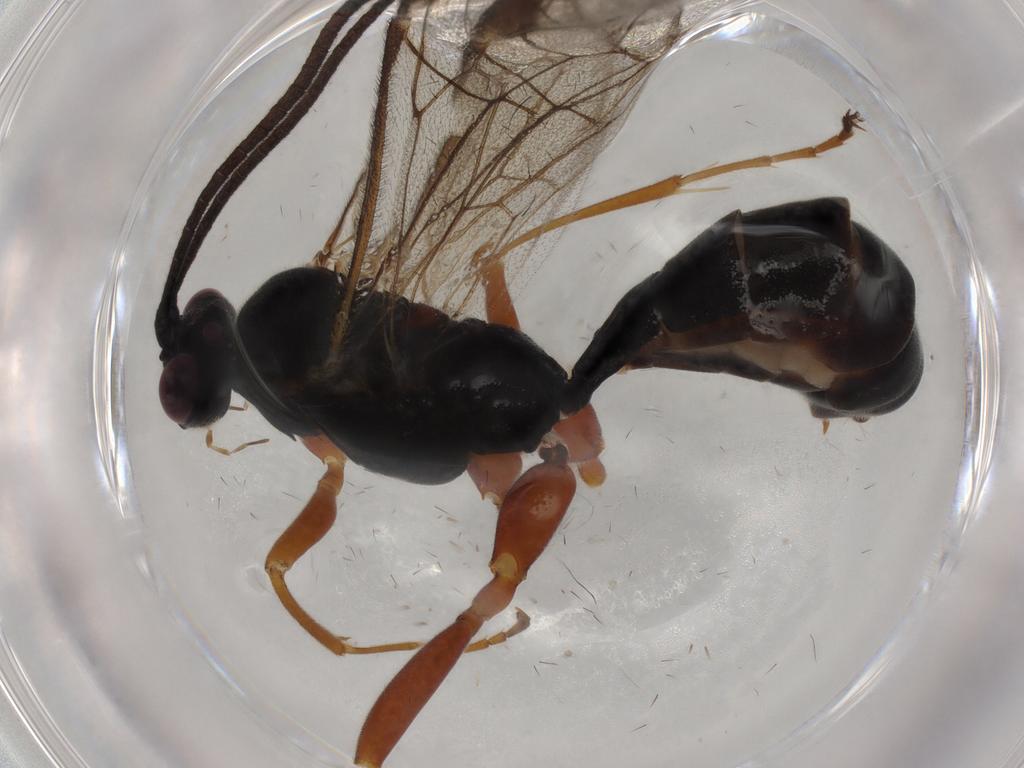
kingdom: Animalia
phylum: Arthropoda
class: Insecta
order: Hymenoptera
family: Ichneumonidae
